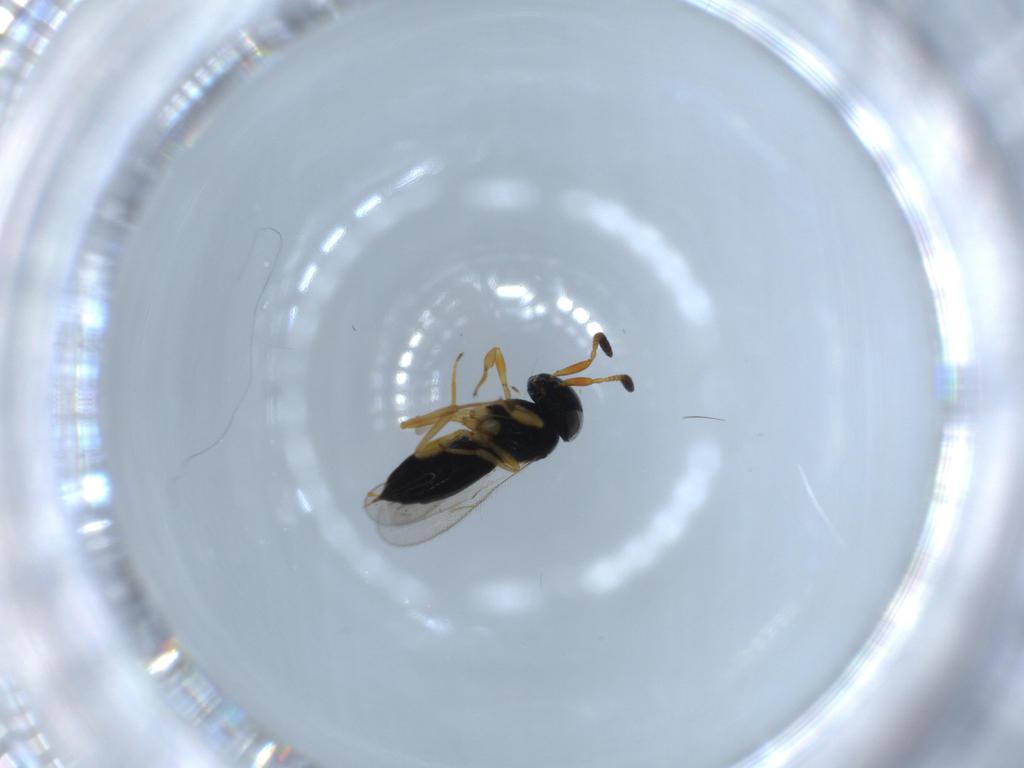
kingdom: Animalia
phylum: Arthropoda
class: Insecta
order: Hymenoptera
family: Scelionidae
